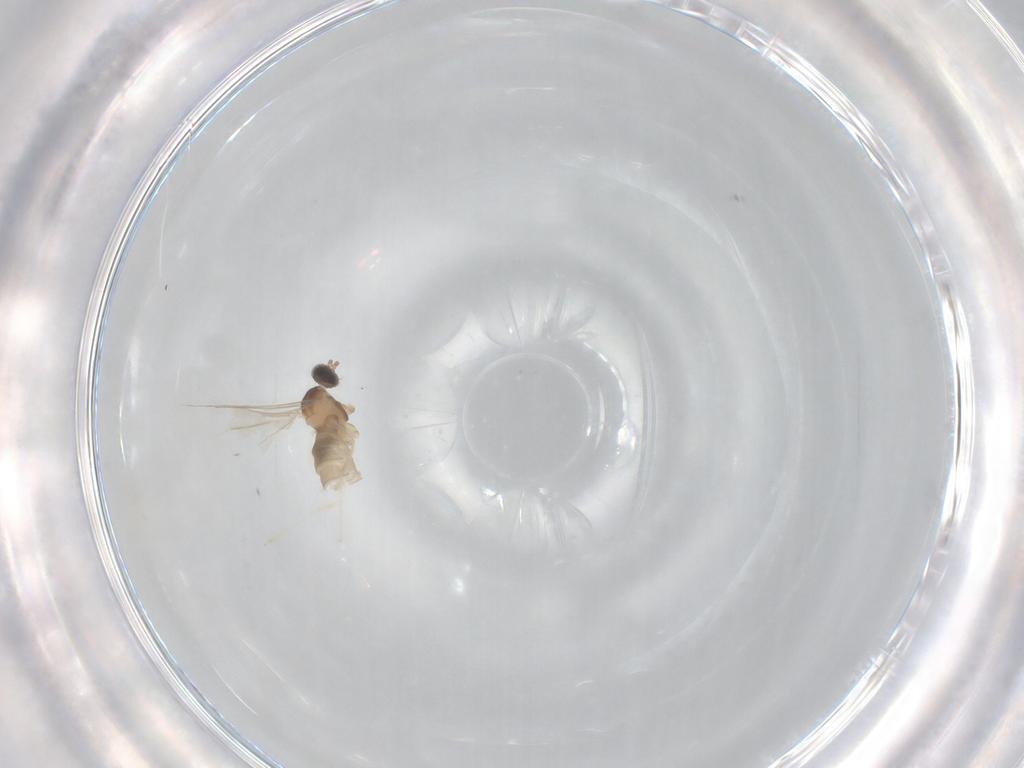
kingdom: Animalia
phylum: Arthropoda
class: Insecta
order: Diptera
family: Cecidomyiidae
